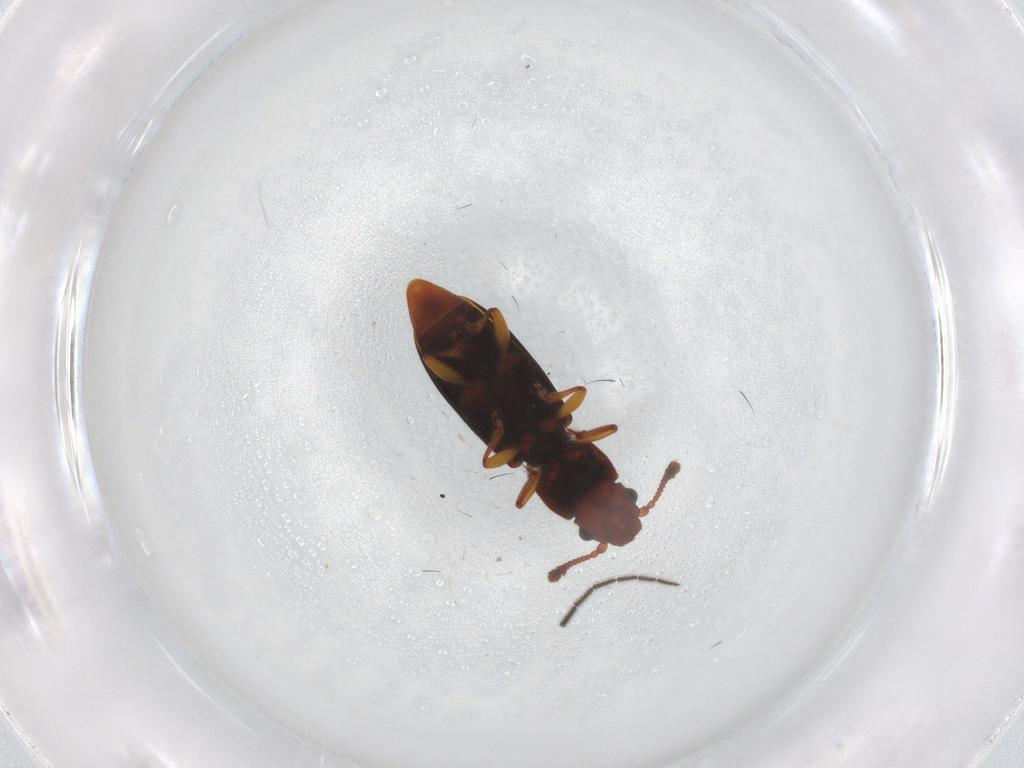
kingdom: Animalia
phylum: Arthropoda
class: Insecta
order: Coleoptera
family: Monotomidae
